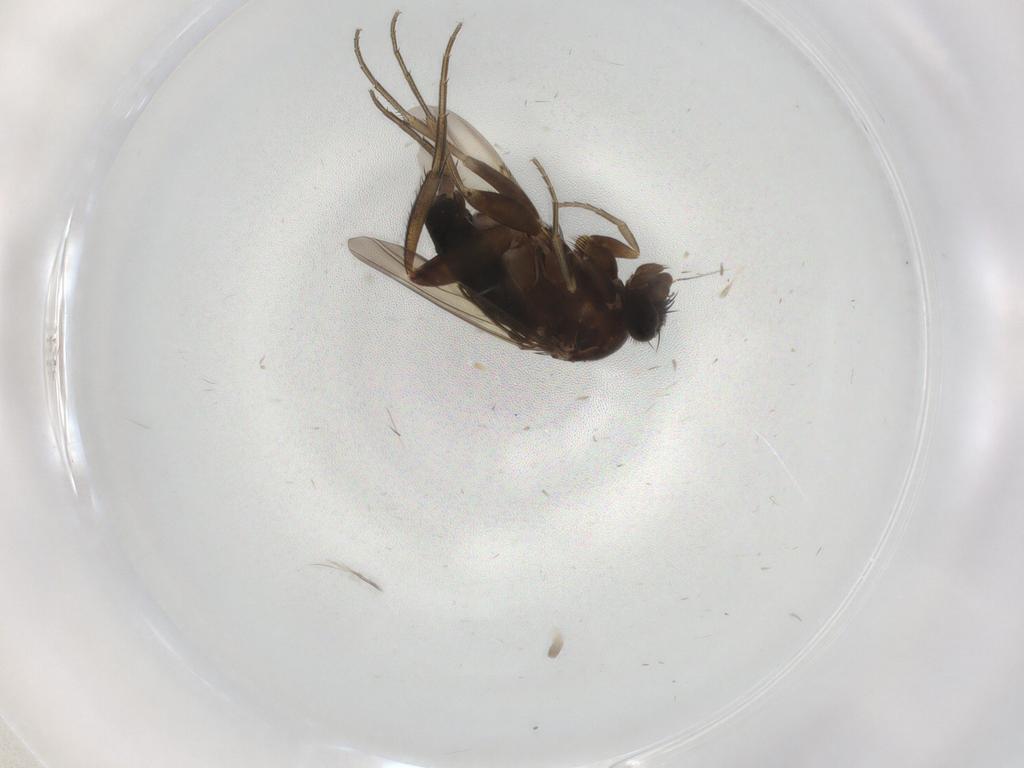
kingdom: Animalia
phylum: Arthropoda
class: Insecta
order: Diptera
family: Phoridae
